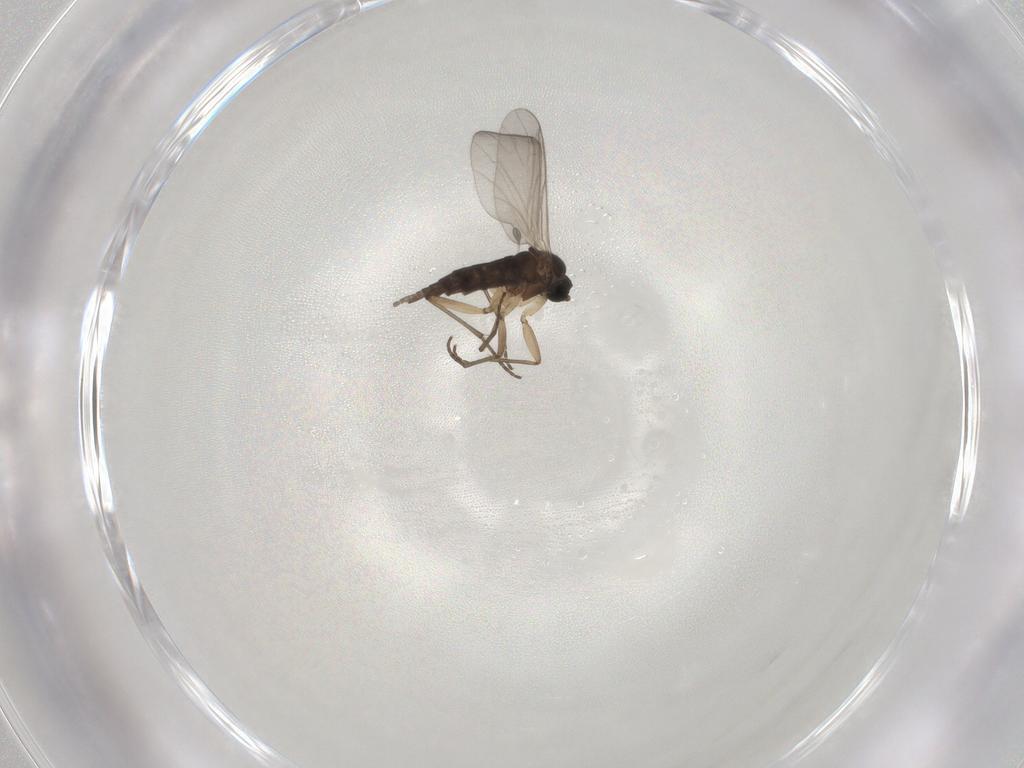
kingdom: Animalia
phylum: Arthropoda
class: Insecta
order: Diptera
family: Sciaridae
